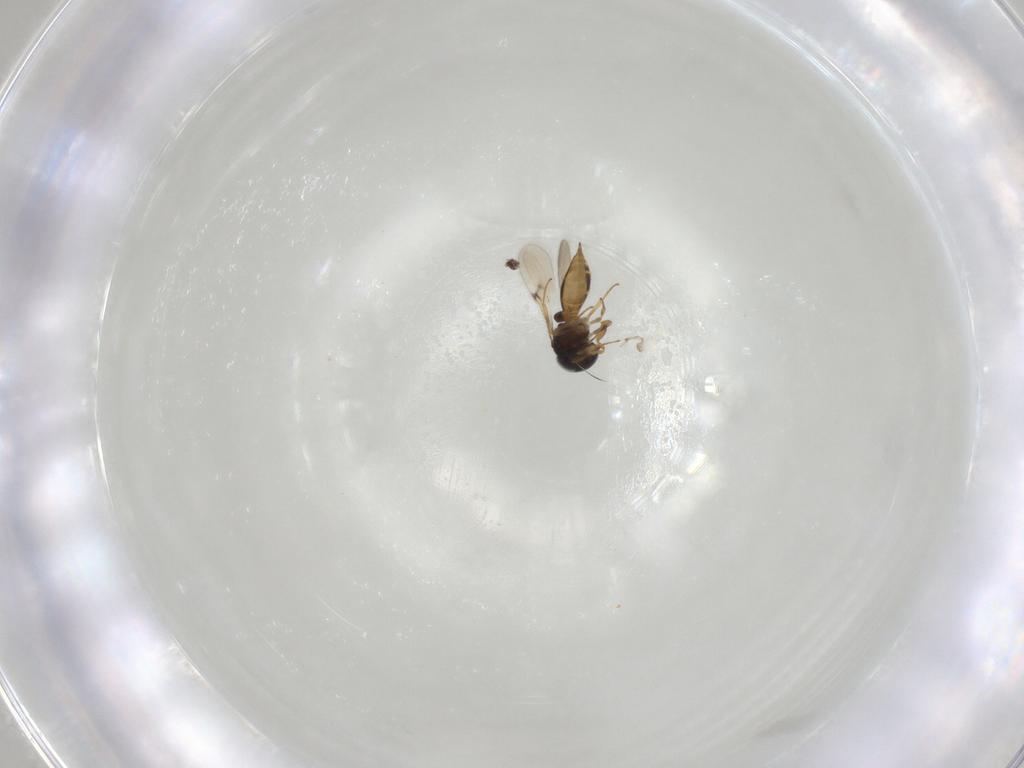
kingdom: Animalia
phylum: Arthropoda
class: Insecta
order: Hymenoptera
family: Scelionidae
